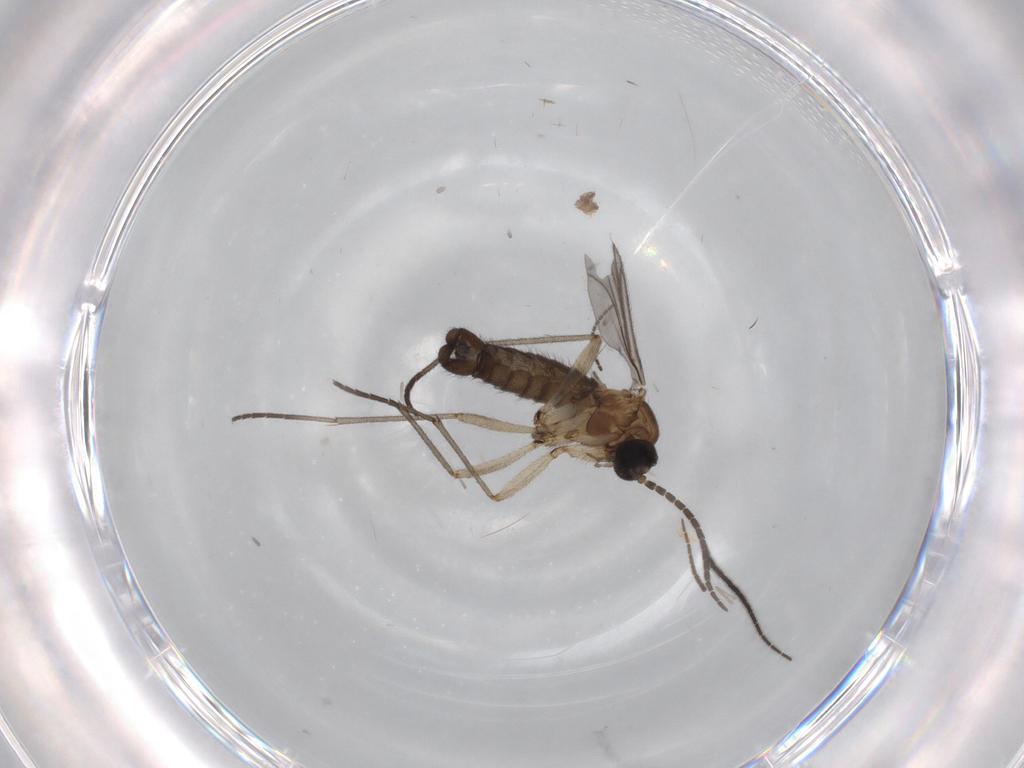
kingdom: Animalia
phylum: Arthropoda
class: Insecta
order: Diptera
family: Sciaridae
